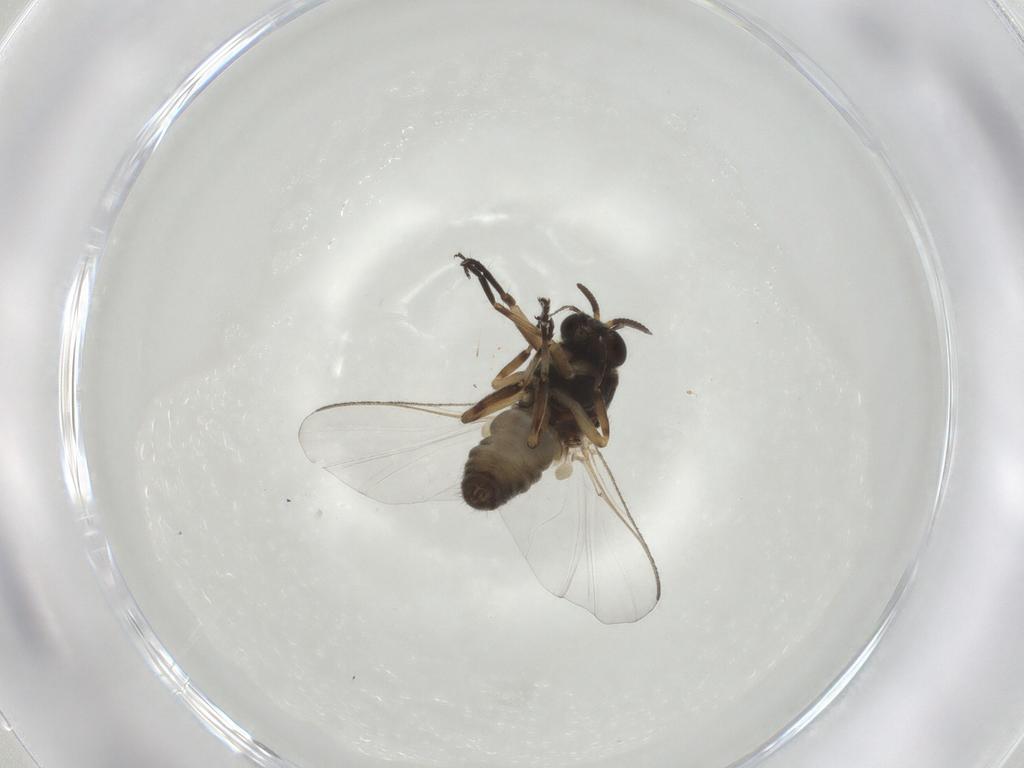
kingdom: Animalia
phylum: Arthropoda
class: Insecta
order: Diptera
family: Simuliidae
